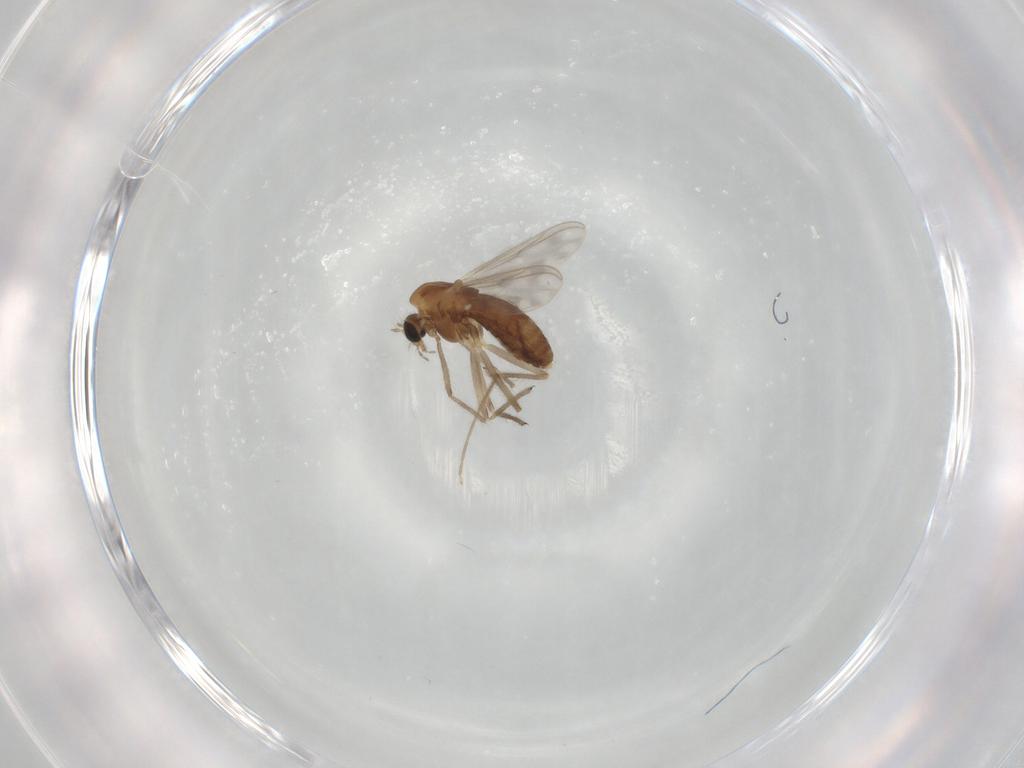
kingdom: Animalia
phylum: Arthropoda
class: Insecta
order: Diptera
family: Chironomidae
